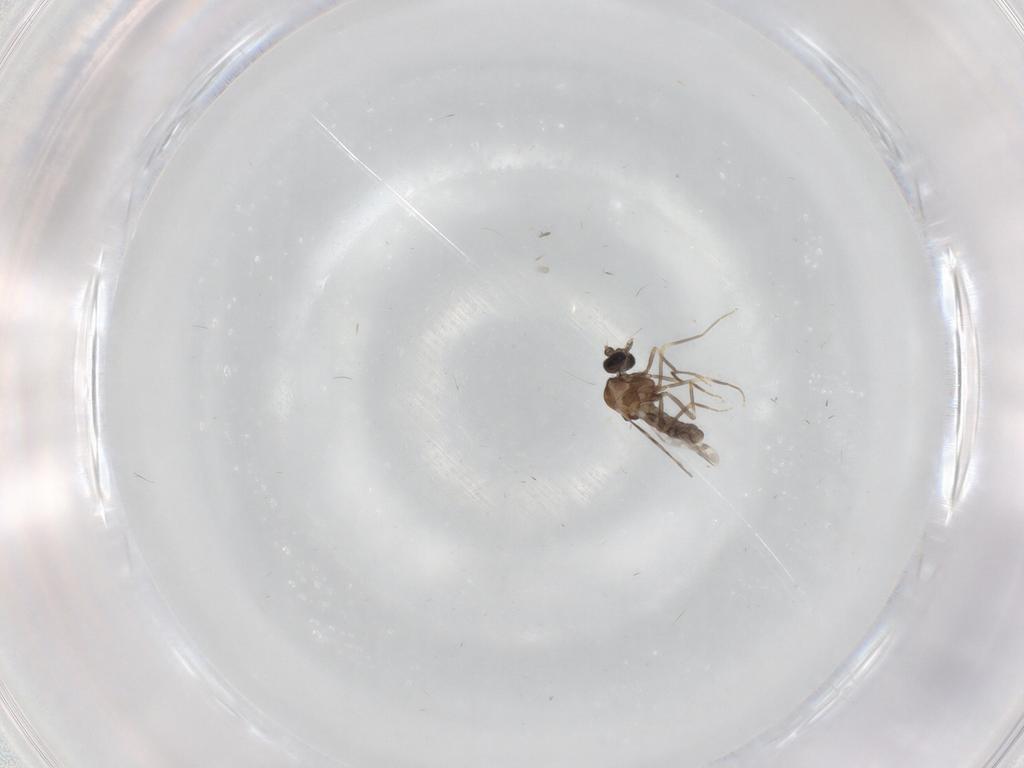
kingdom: Animalia
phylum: Arthropoda
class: Insecta
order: Diptera
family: Ceratopogonidae
